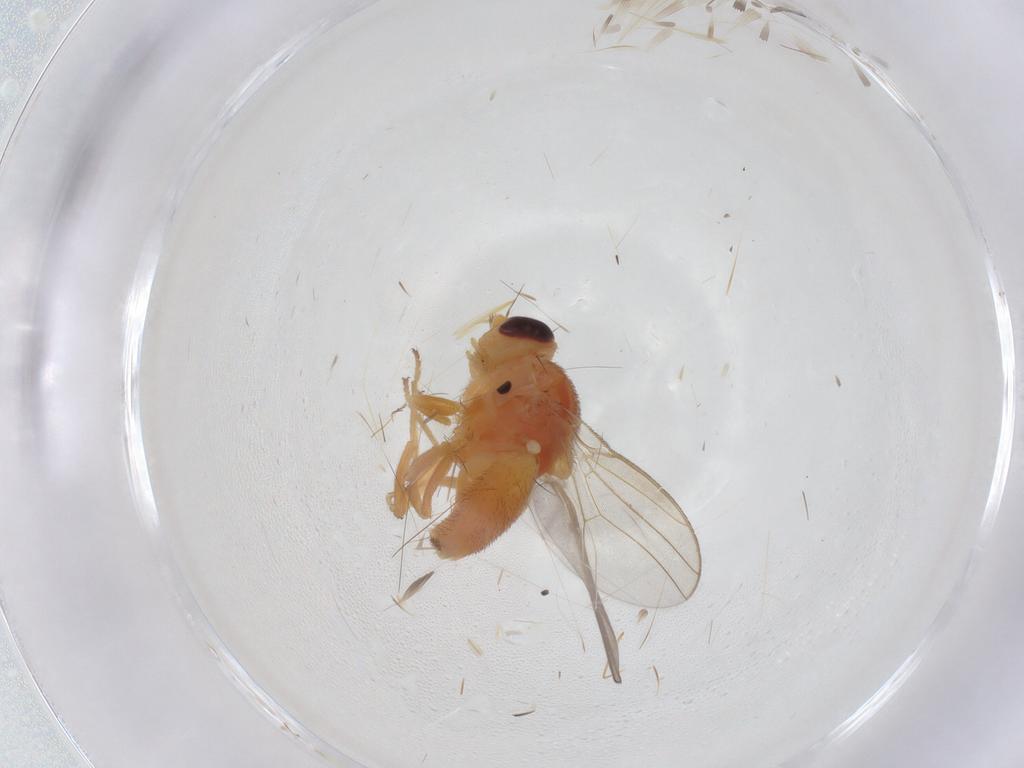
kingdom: Animalia
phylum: Arthropoda
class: Insecta
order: Diptera
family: Chloropidae
